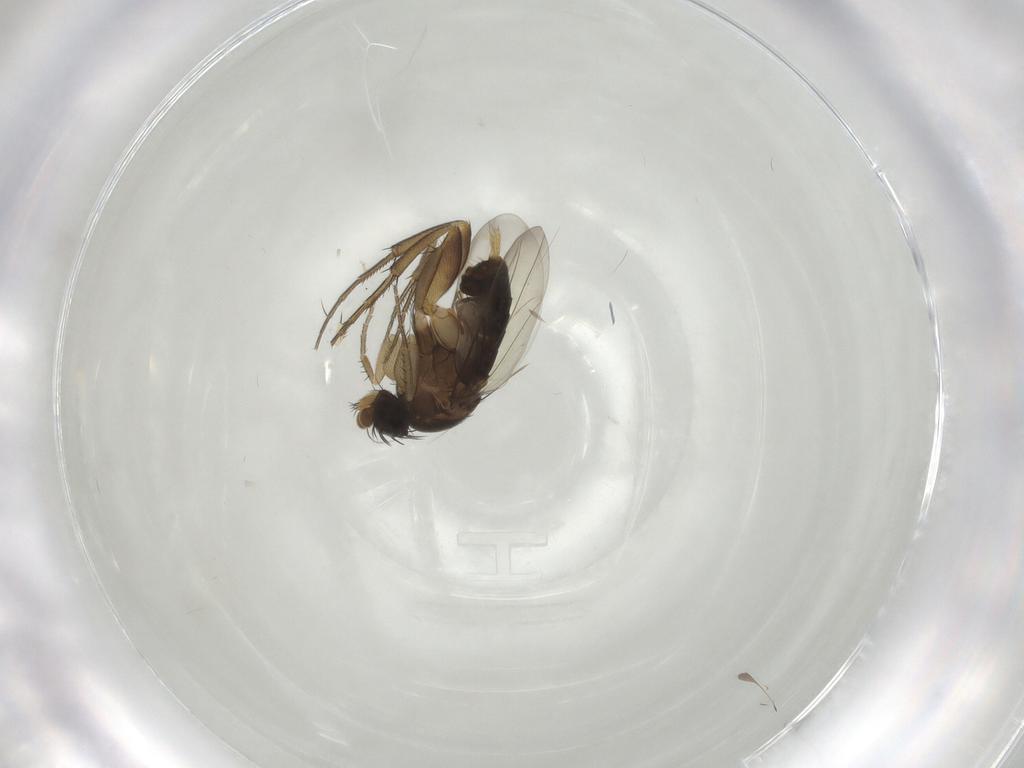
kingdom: Animalia
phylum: Arthropoda
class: Insecta
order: Diptera
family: Phoridae
